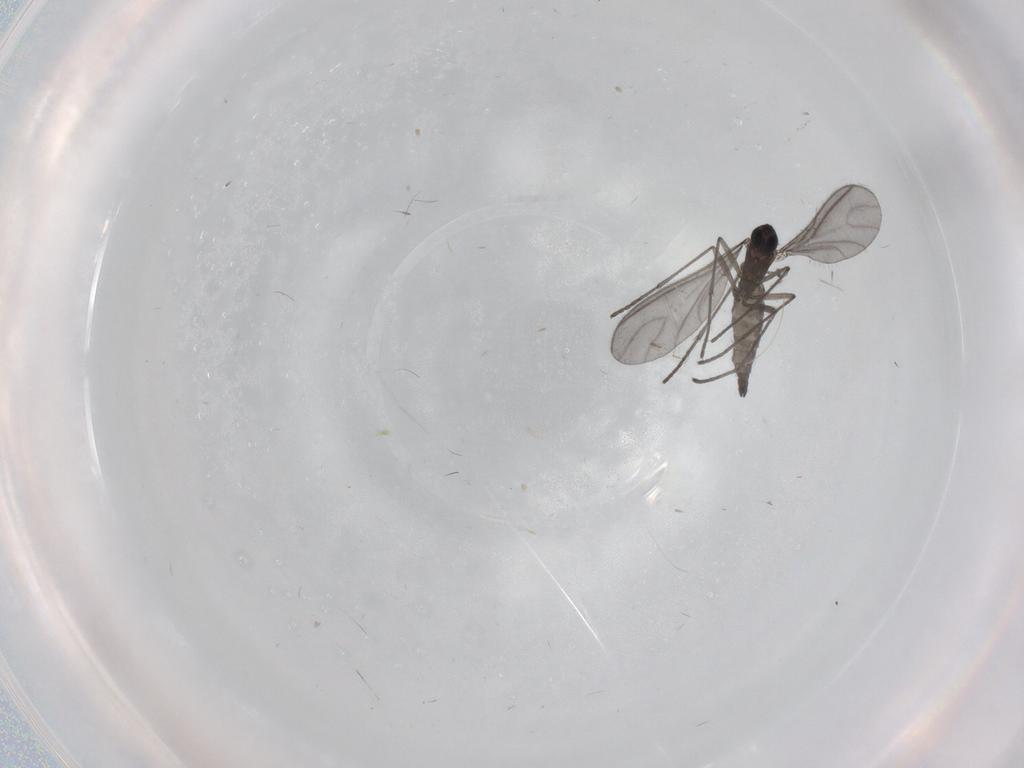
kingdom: Animalia
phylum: Arthropoda
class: Insecta
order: Diptera
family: Sciaridae
